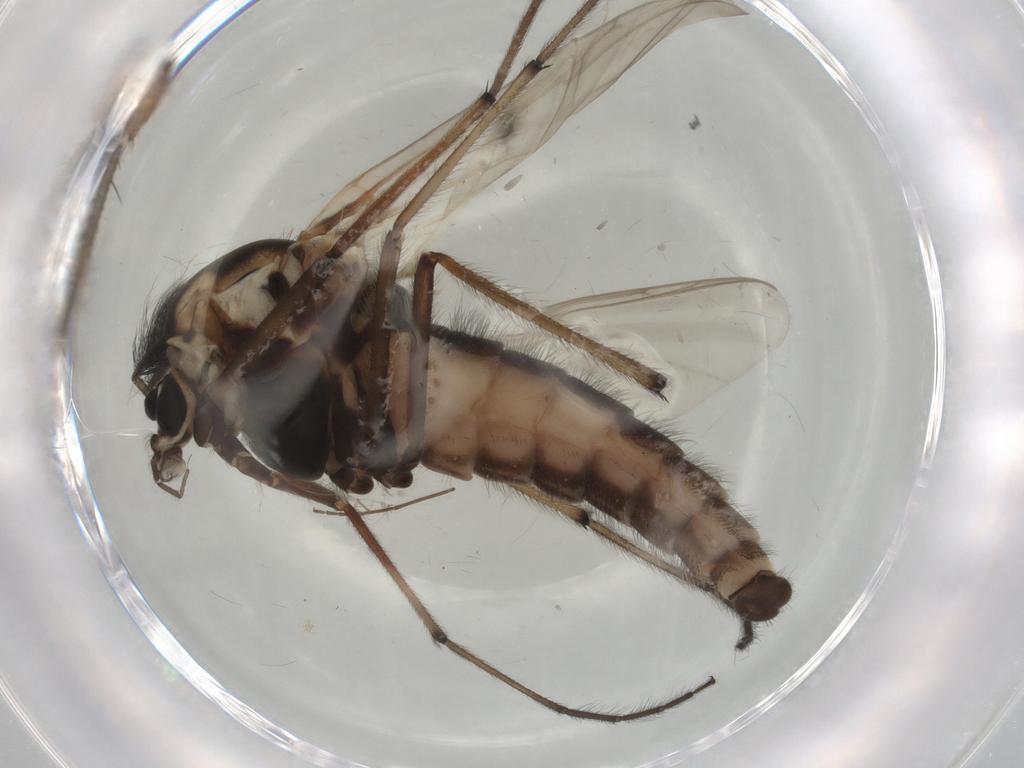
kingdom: Animalia
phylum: Arthropoda
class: Insecta
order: Diptera
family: Chironomidae
